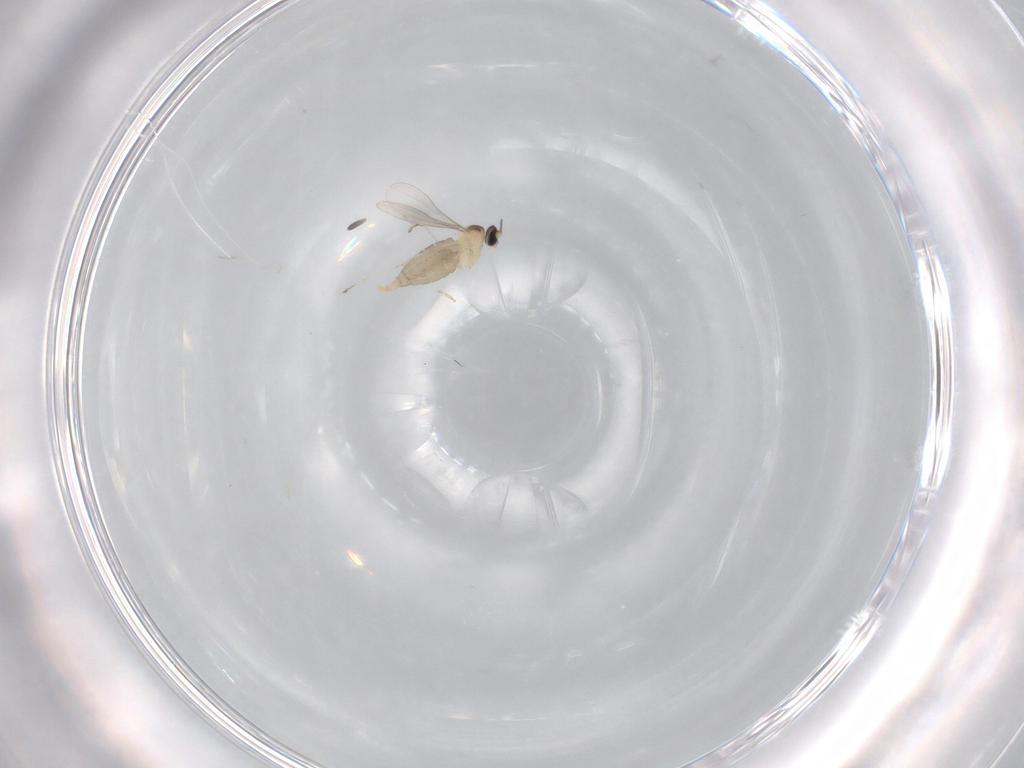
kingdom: Animalia
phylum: Arthropoda
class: Insecta
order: Diptera
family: Cecidomyiidae
